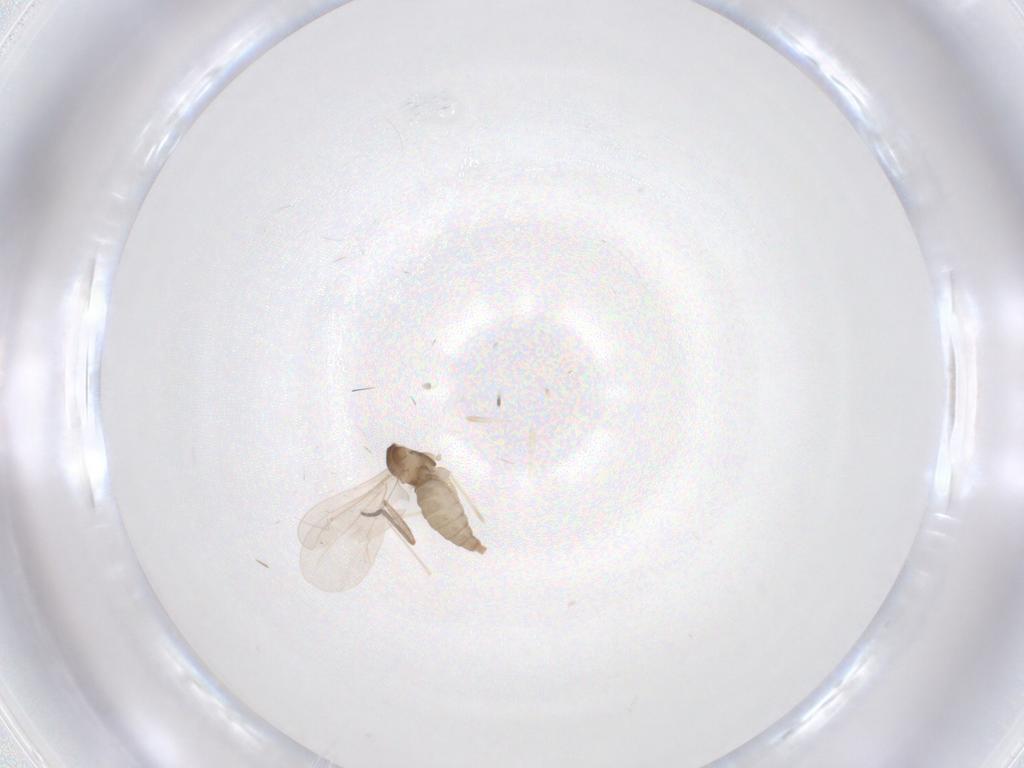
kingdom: Animalia
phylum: Arthropoda
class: Insecta
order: Diptera
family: Cecidomyiidae
